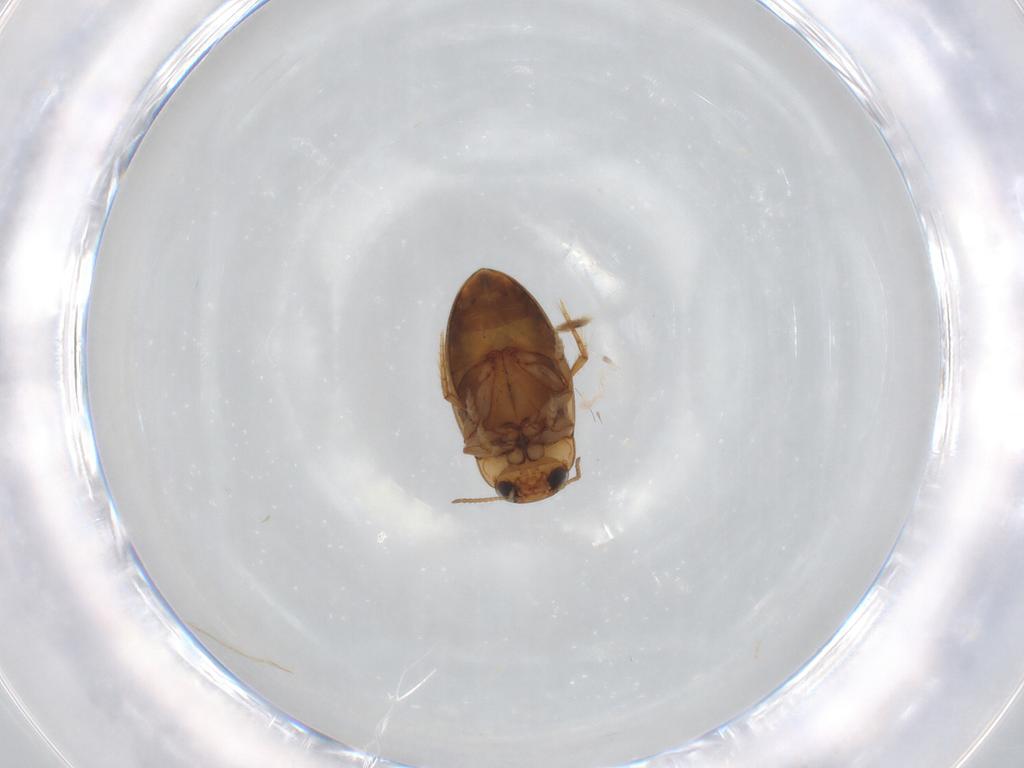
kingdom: Animalia
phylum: Arthropoda
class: Insecta
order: Coleoptera
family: Dytiscidae
